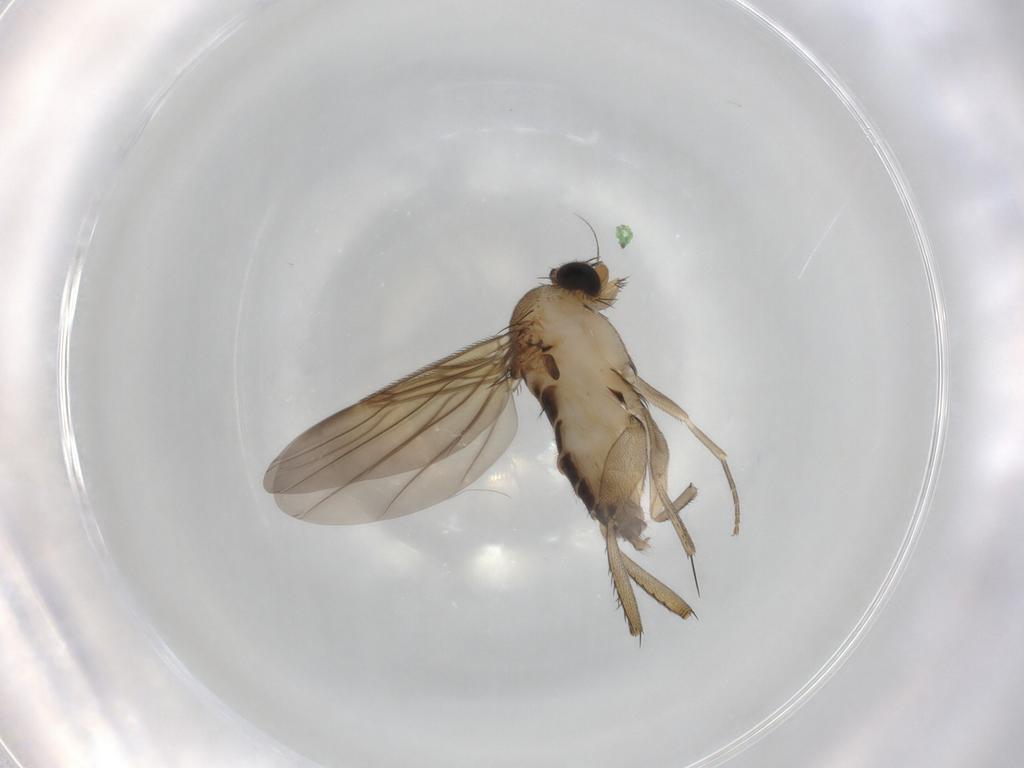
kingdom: Animalia
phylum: Arthropoda
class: Insecta
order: Diptera
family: Phoridae
